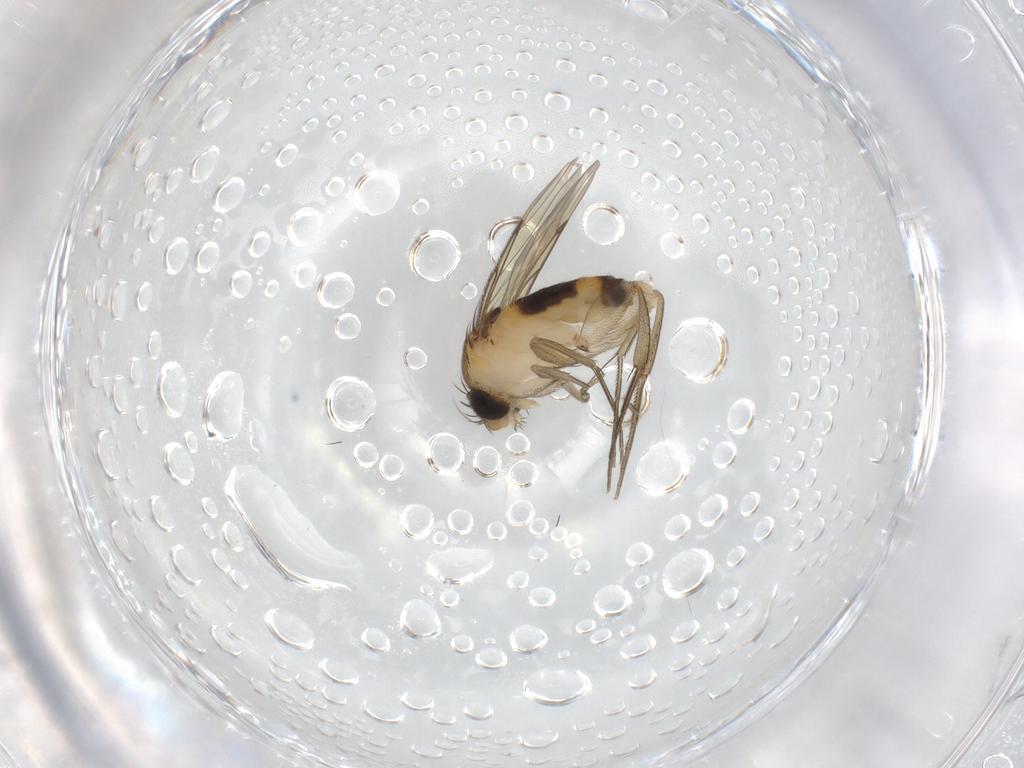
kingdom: Animalia
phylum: Arthropoda
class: Insecta
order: Diptera
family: Phoridae
